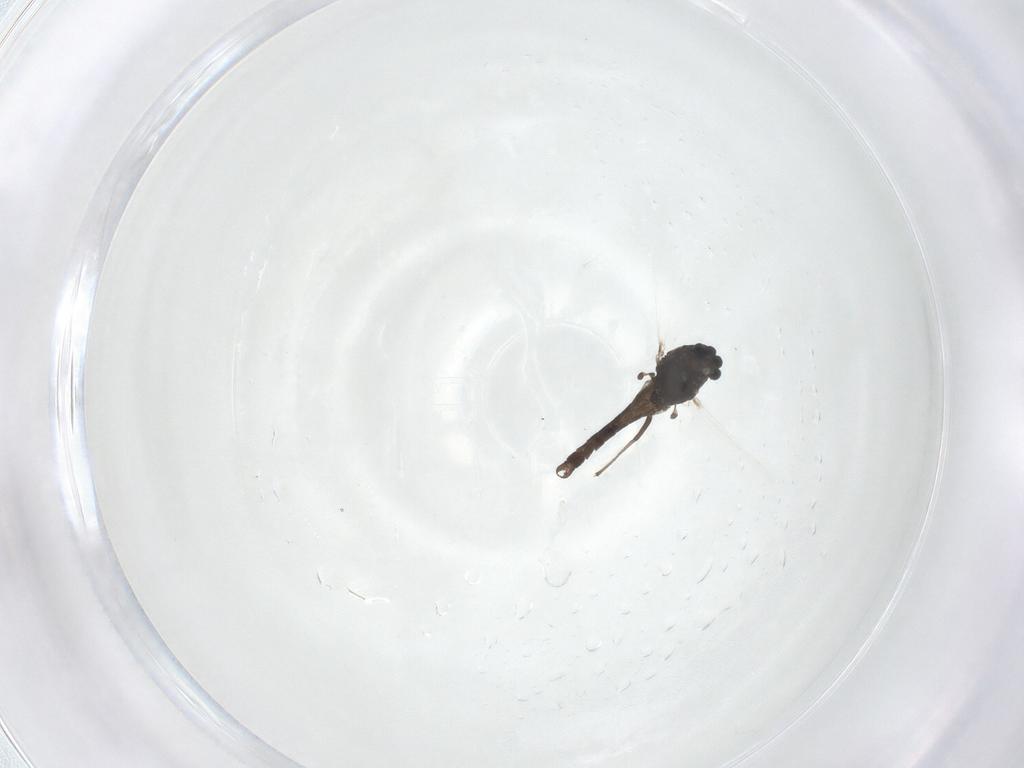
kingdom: Animalia
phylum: Arthropoda
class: Insecta
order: Diptera
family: Chironomidae
